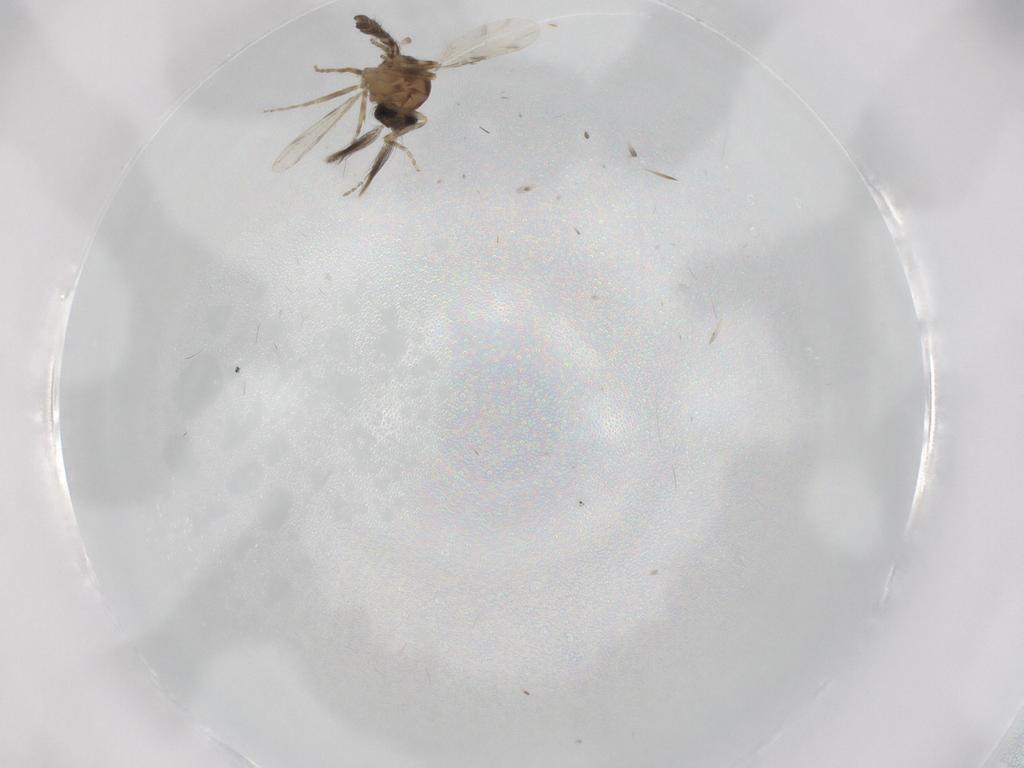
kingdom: Animalia
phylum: Arthropoda
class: Insecta
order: Diptera
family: Ceratopogonidae
